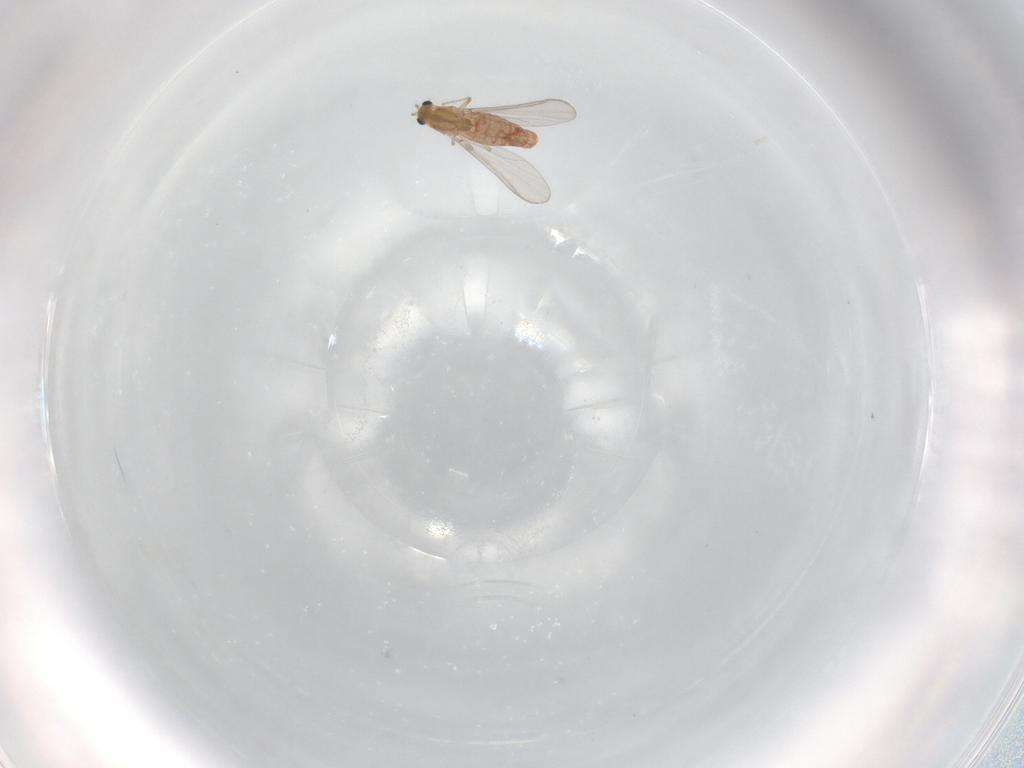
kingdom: Animalia
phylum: Arthropoda
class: Insecta
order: Diptera
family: Chironomidae
